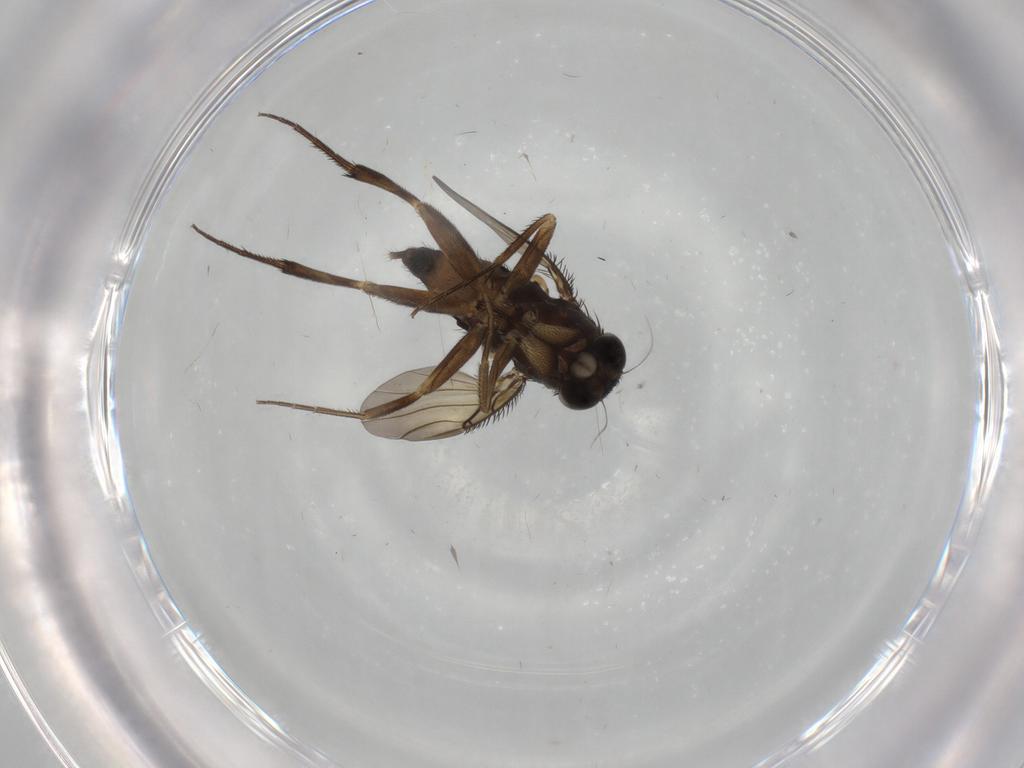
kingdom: Animalia
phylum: Arthropoda
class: Insecta
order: Diptera
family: Phoridae
